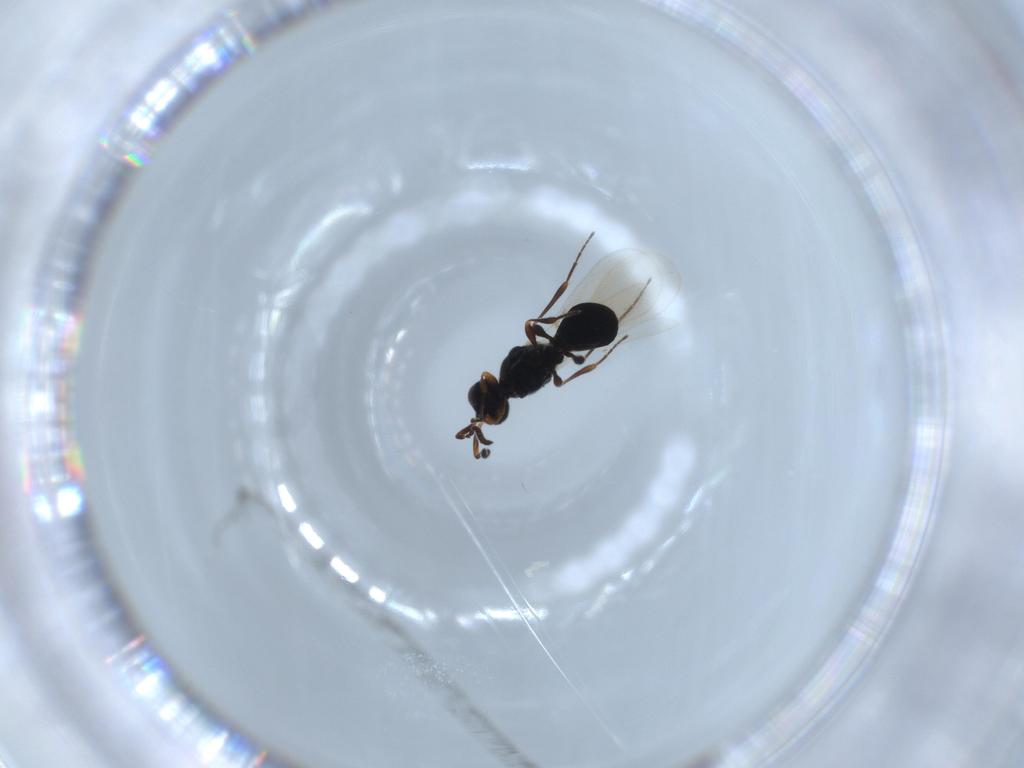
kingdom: Animalia
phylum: Arthropoda
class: Insecta
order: Hymenoptera
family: Platygastridae
